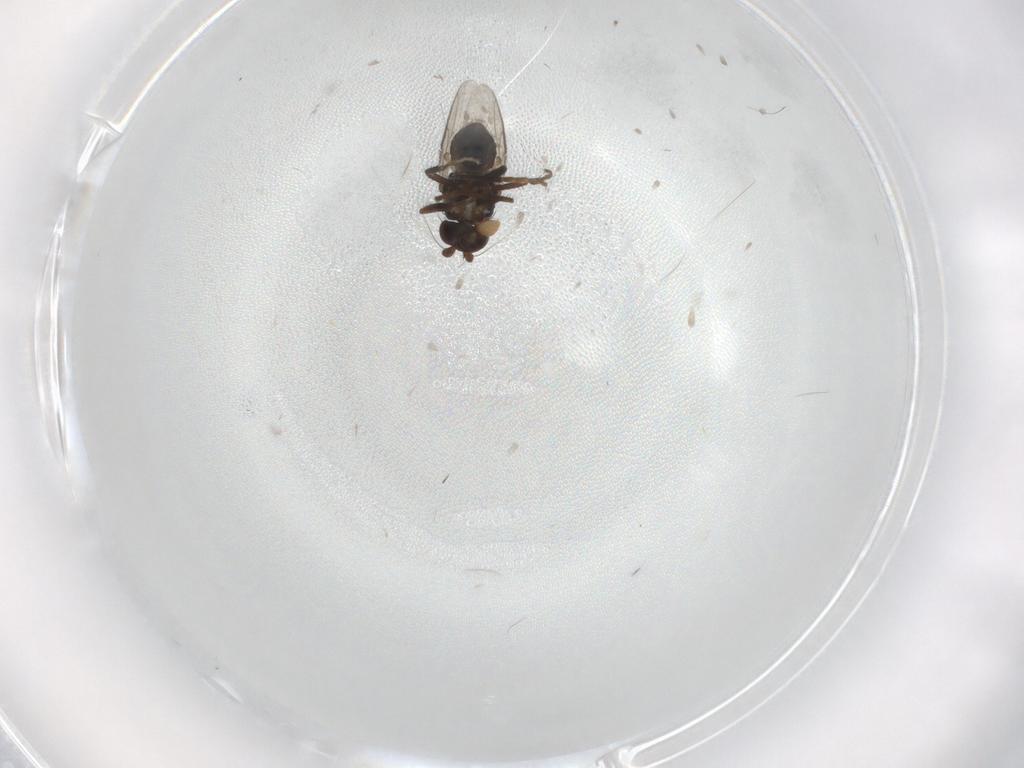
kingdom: Animalia
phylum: Arthropoda
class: Insecta
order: Diptera
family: Sphaeroceridae
